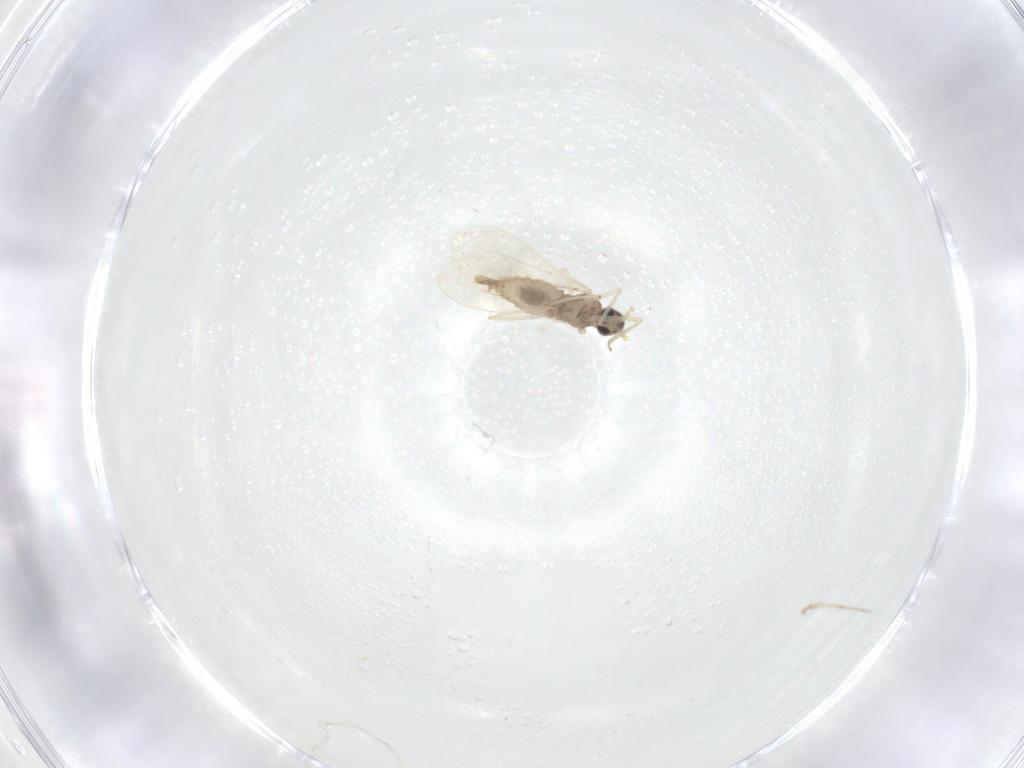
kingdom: Animalia
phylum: Arthropoda
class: Insecta
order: Diptera
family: Cecidomyiidae
